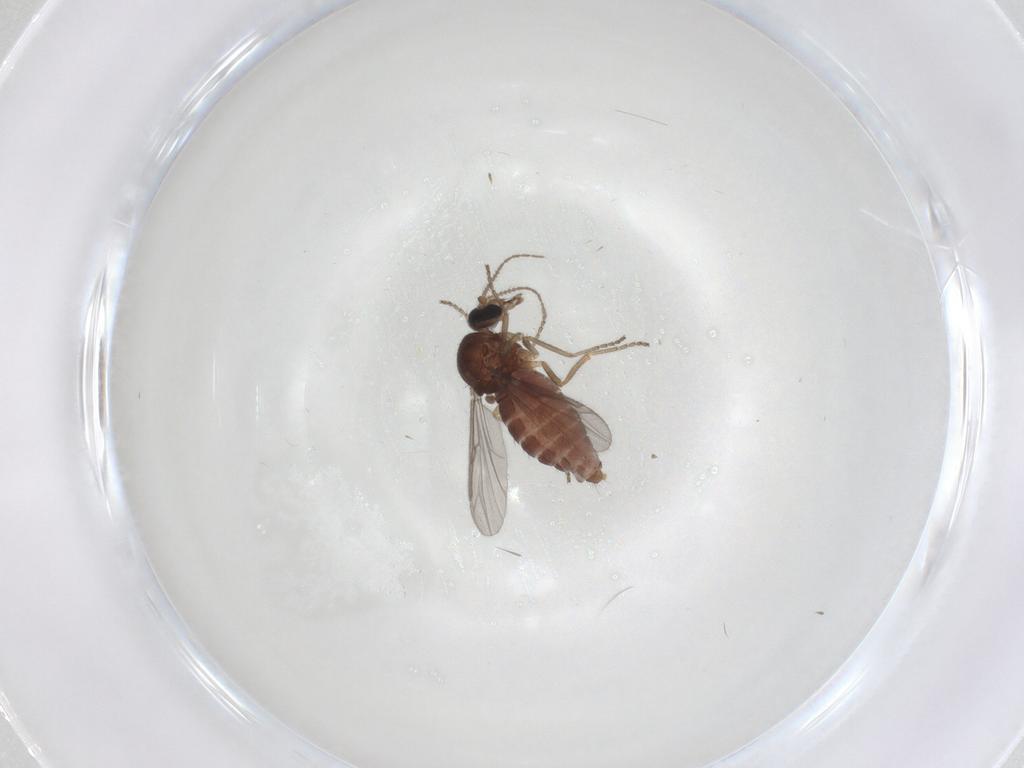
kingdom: Animalia
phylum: Arthropoda
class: Insecta
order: Diptera
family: Ceratopogonidae
